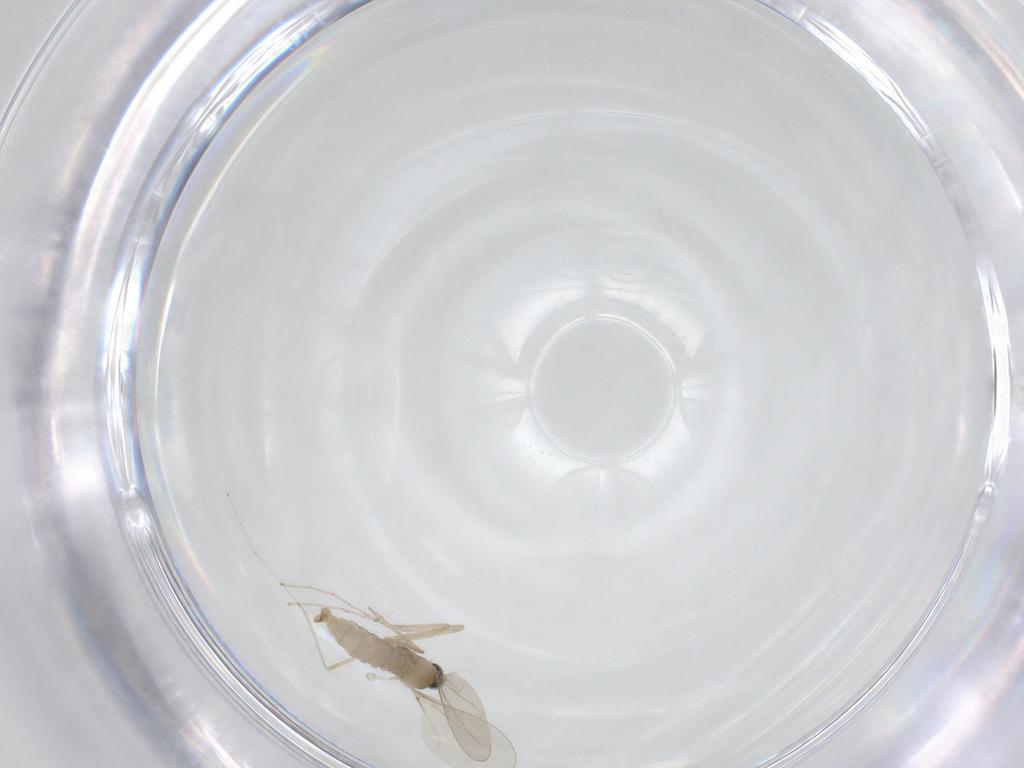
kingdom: Animalia
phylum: Arthropoda
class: Insecta
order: Diptera
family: Cecidomyiidae
